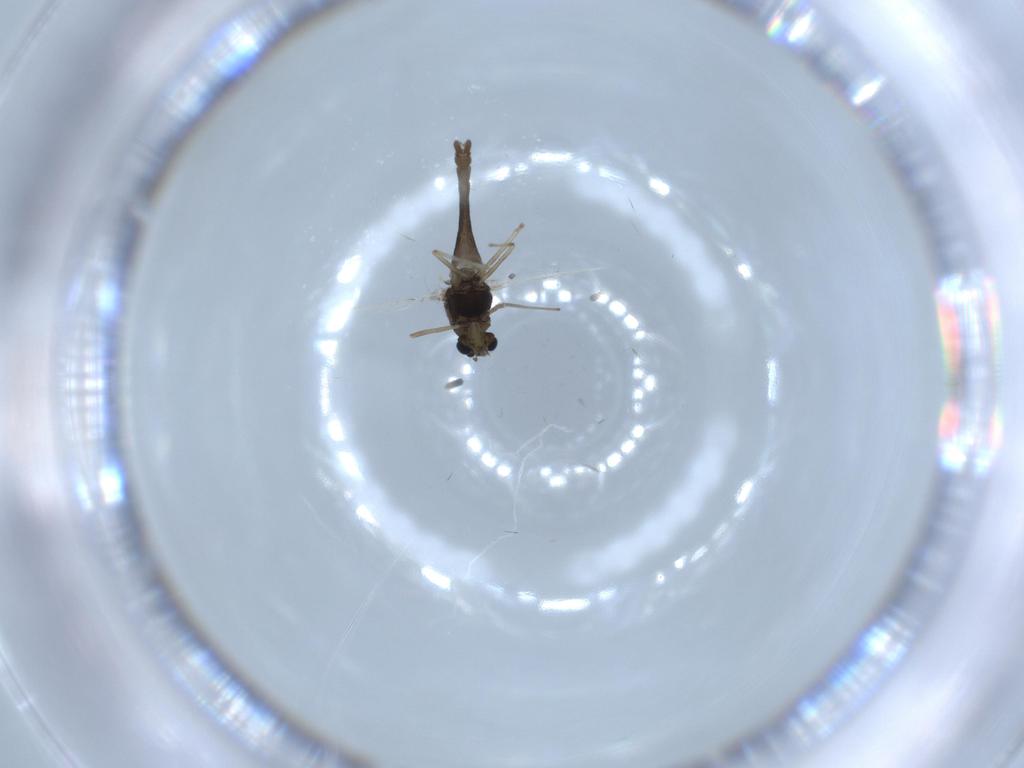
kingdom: Animalia
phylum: Arthropoda
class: Insecta
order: Diptera
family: Chironomidae
